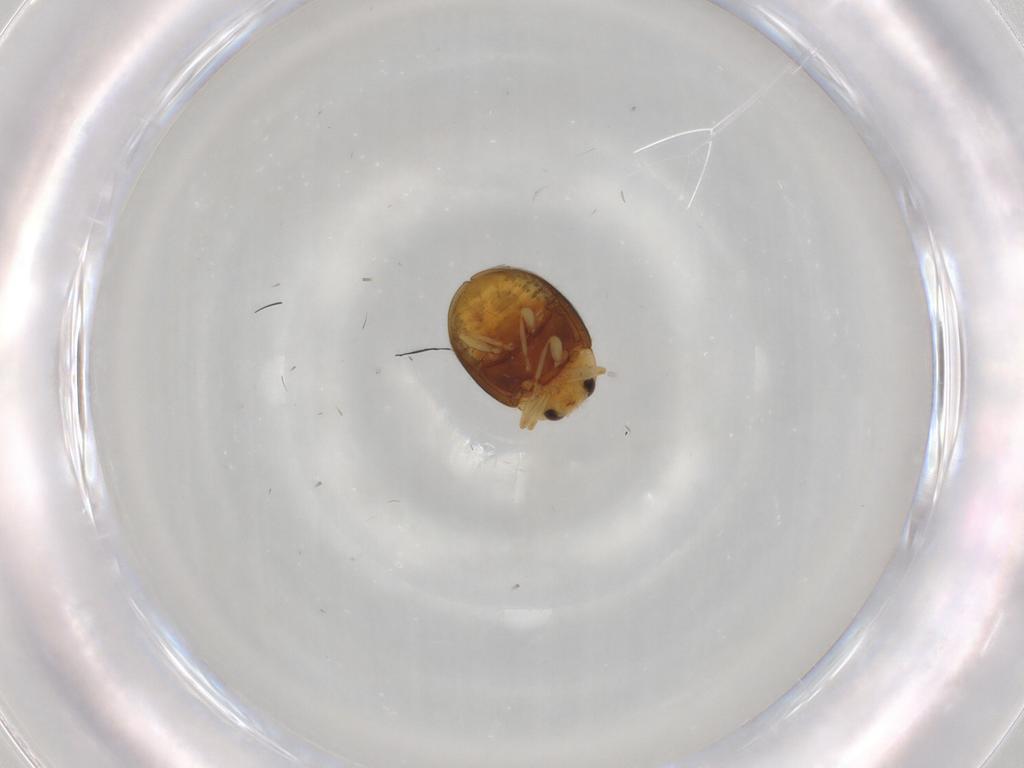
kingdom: Animalia
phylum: Arthropoda
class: Insecta
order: Coleoptera
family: Coccinellidae
